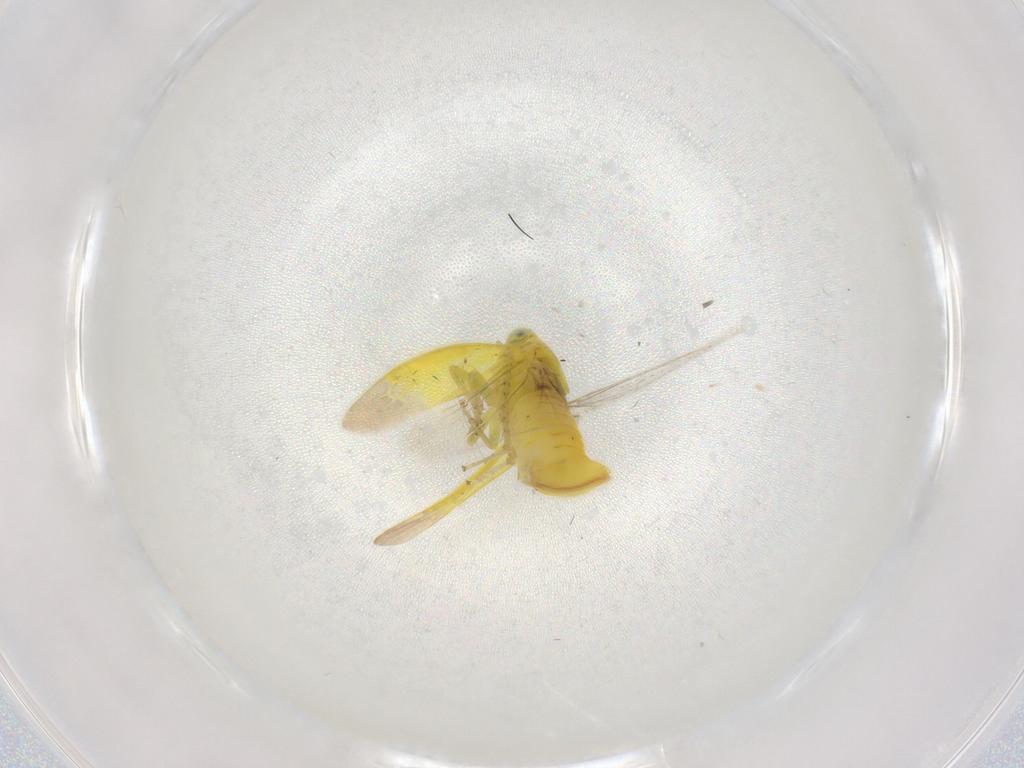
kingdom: Animalia
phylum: Arthropoda
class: Insecta
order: Hemiptera
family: Cicadellidae
